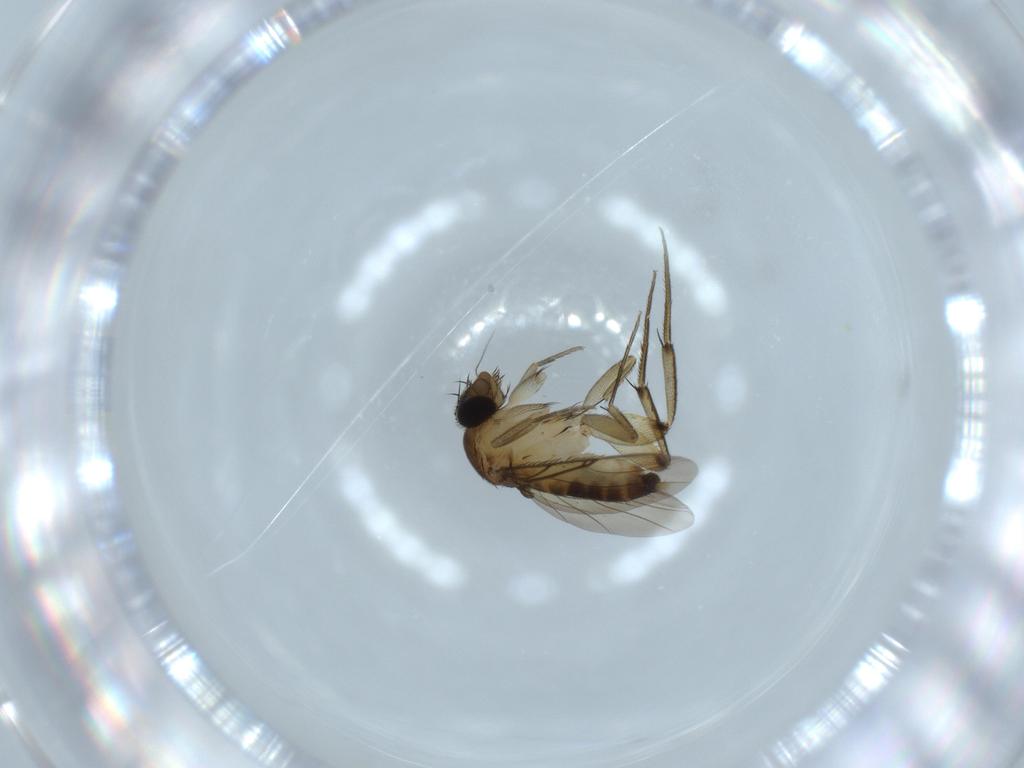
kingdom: Animalia
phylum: Arthropoda
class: Insecta
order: Diptera
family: Phoridae
